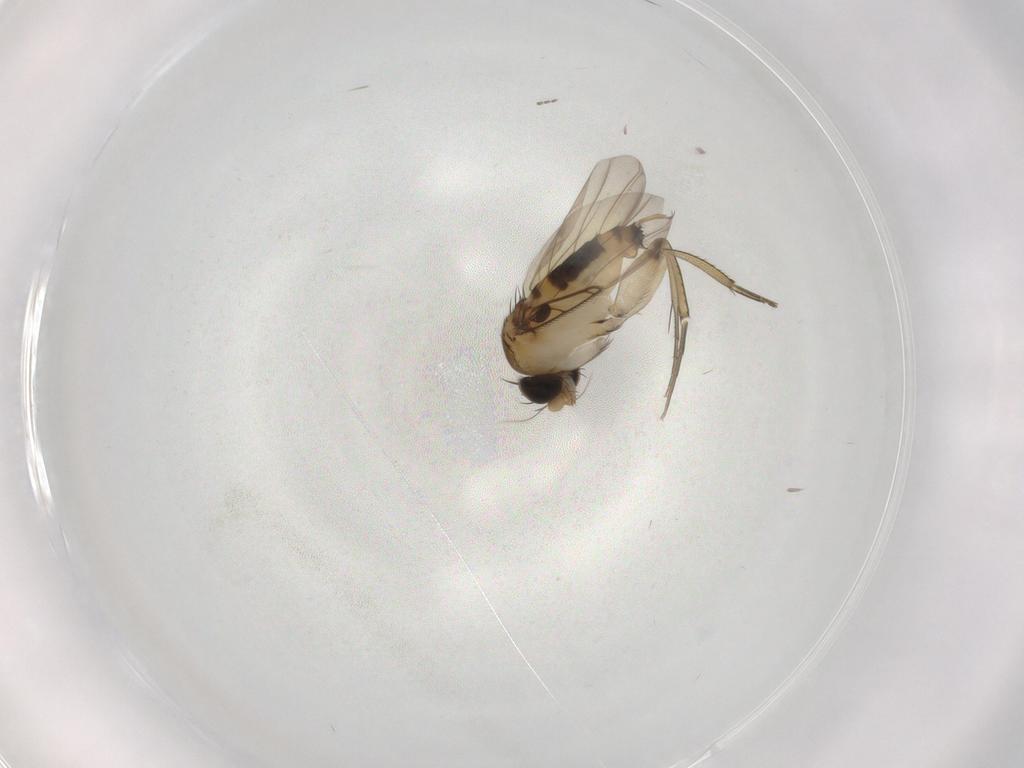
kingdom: Animalia
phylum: Arthropoda
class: Insecta
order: Diptera
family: Phoridae
